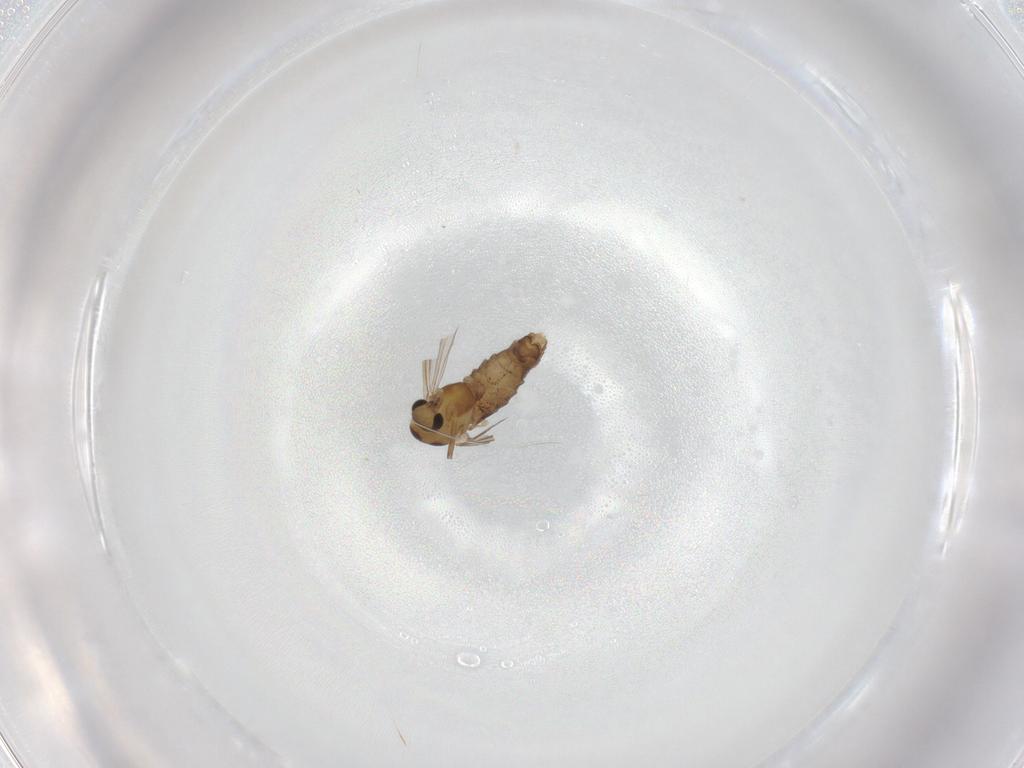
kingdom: Animalia
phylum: Arthropoda
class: Insecta
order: Diptera
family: Chironomidae
